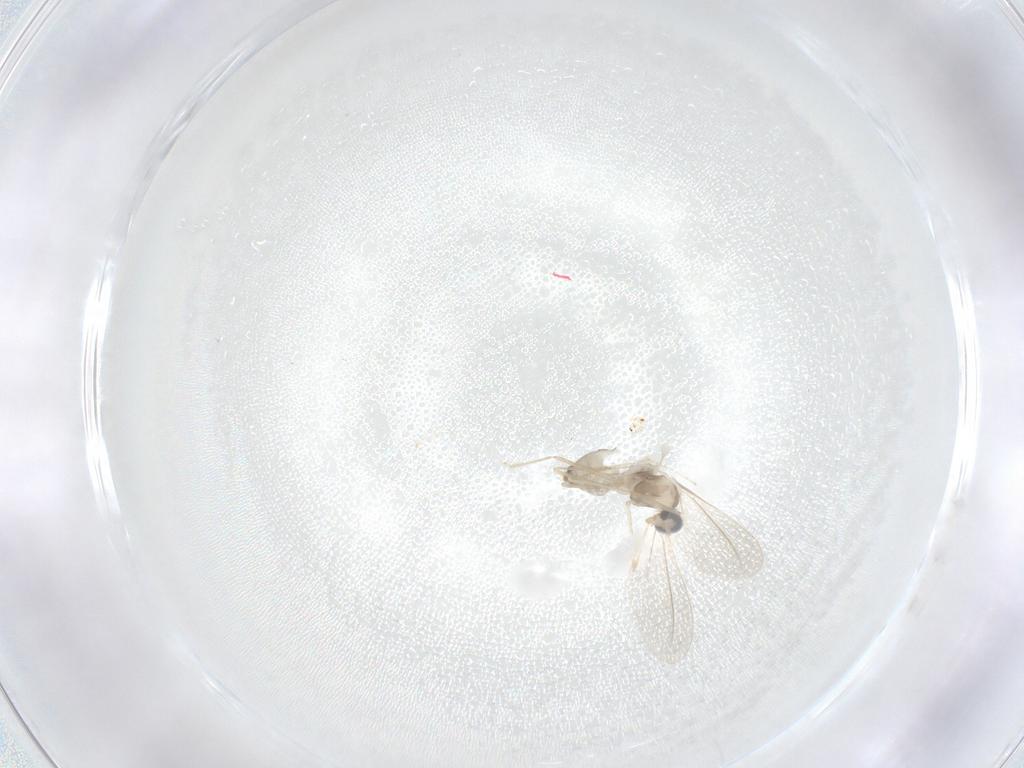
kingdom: Animalia
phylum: Arthropoda
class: Insecta
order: Diptera
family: Cecidomyiidae
